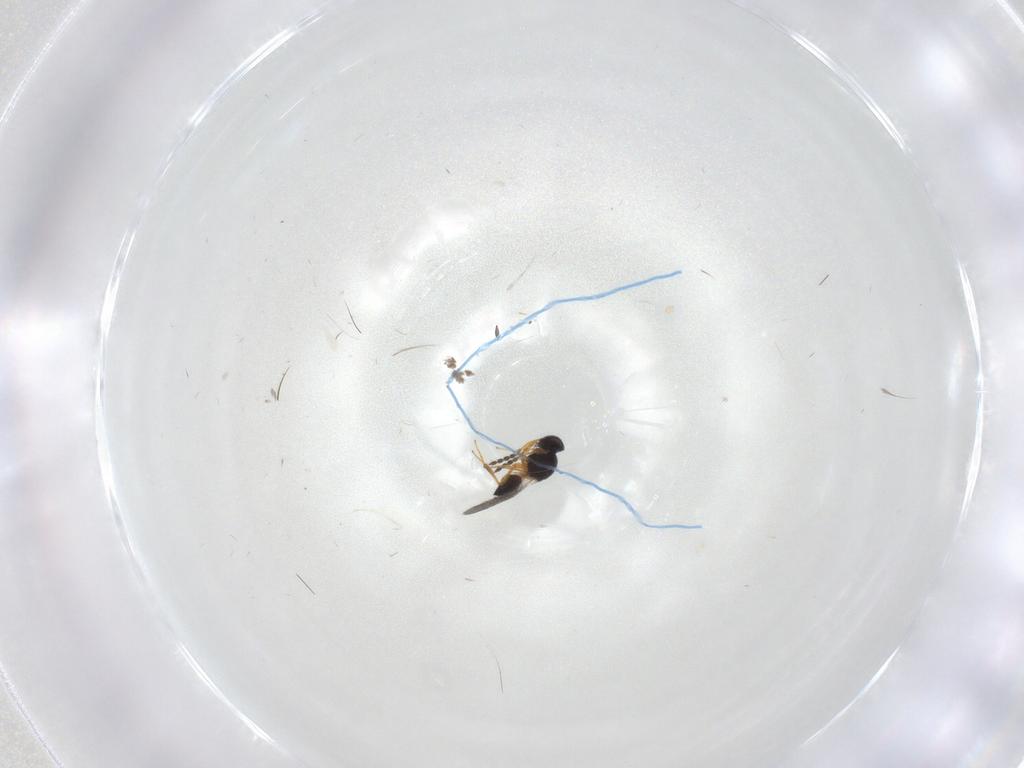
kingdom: Animalia
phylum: Arthropoda
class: Insecta
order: Hymenoptera
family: Platygastridae
